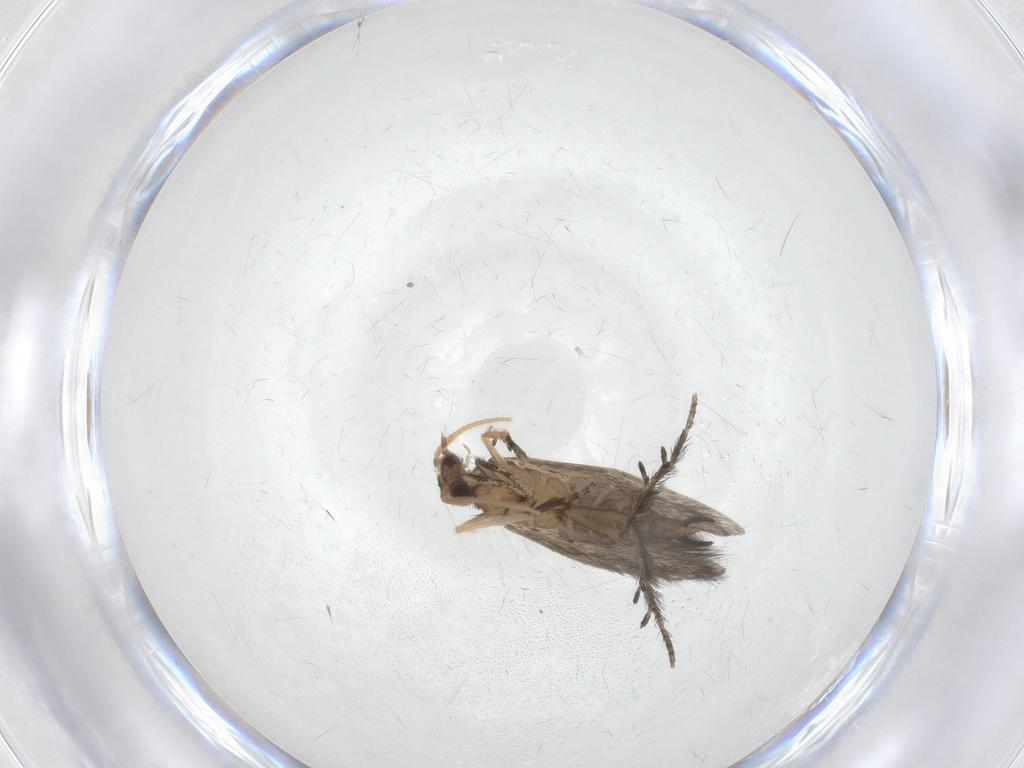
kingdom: Animalia
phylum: Arthropoda
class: Insecta
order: Trichoptera
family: Hydroptilidae
